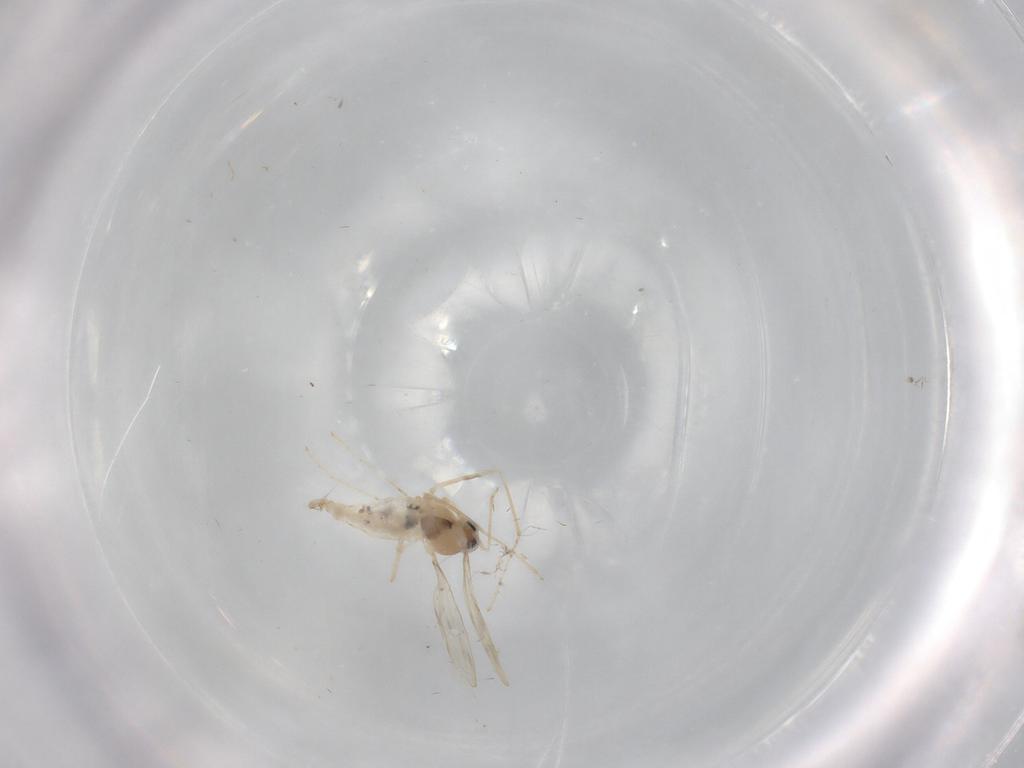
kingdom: Animalia
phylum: Arthropoda
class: Insecta
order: Diptera
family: Cecidomyiidae
